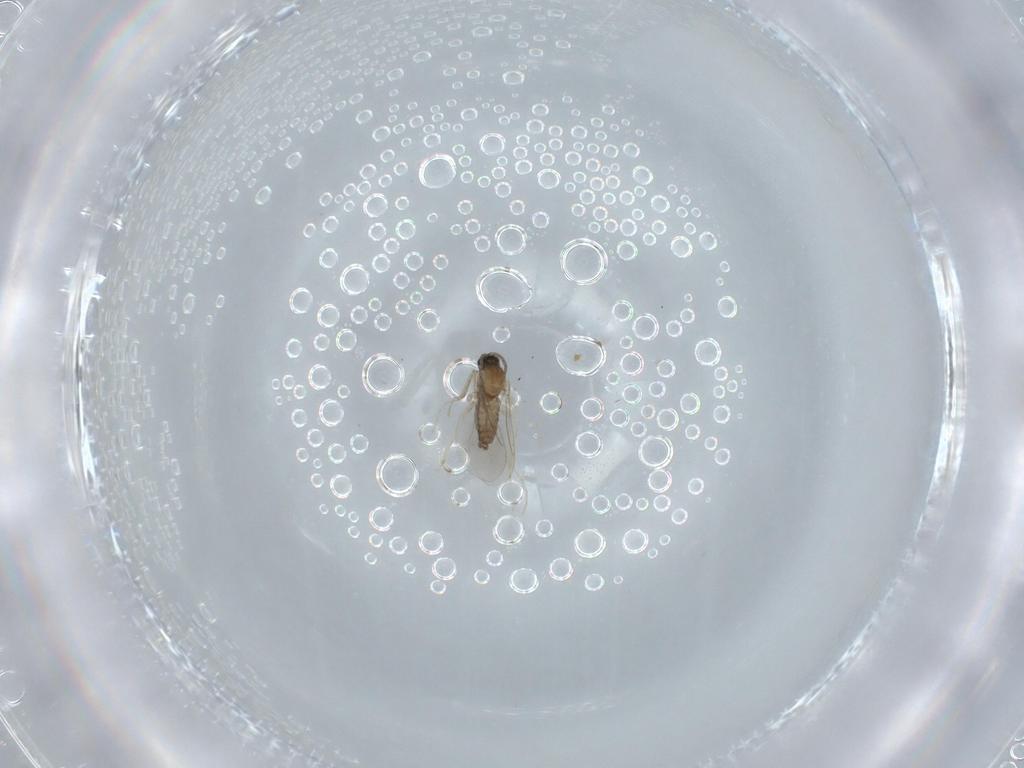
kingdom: Animalia
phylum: Arthropoda
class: Insecta
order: Diptera
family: Cecidomyiidae
